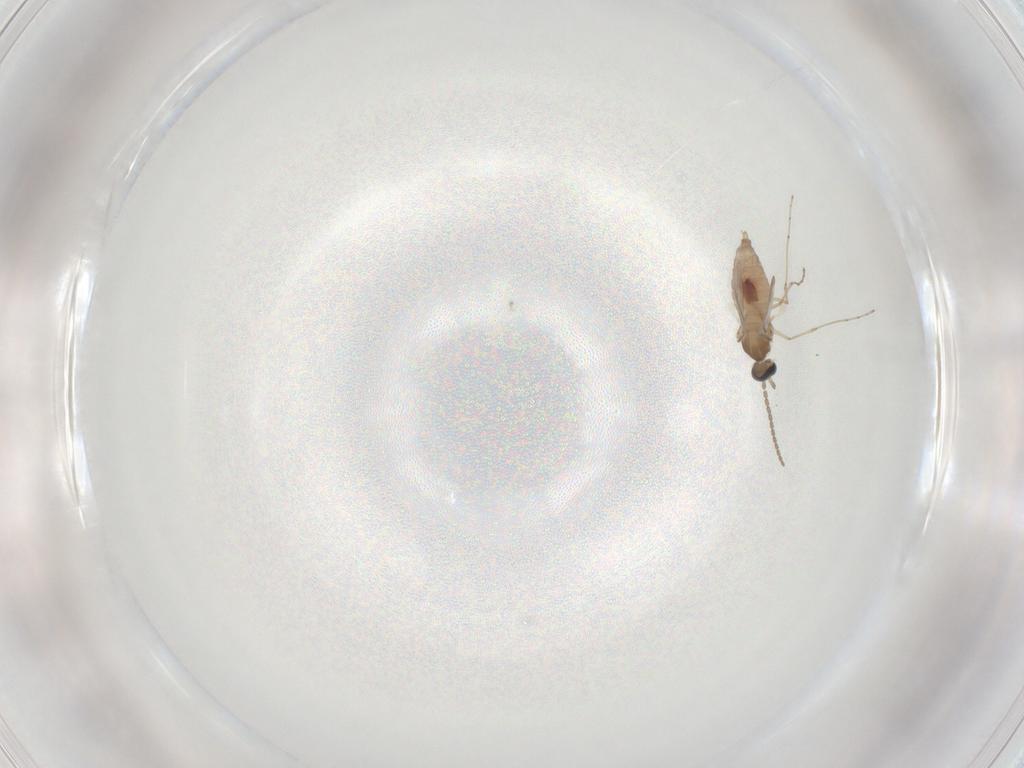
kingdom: Animalia
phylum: Arthropoda
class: Insecta
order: Diptera
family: Cecidomyiidae
